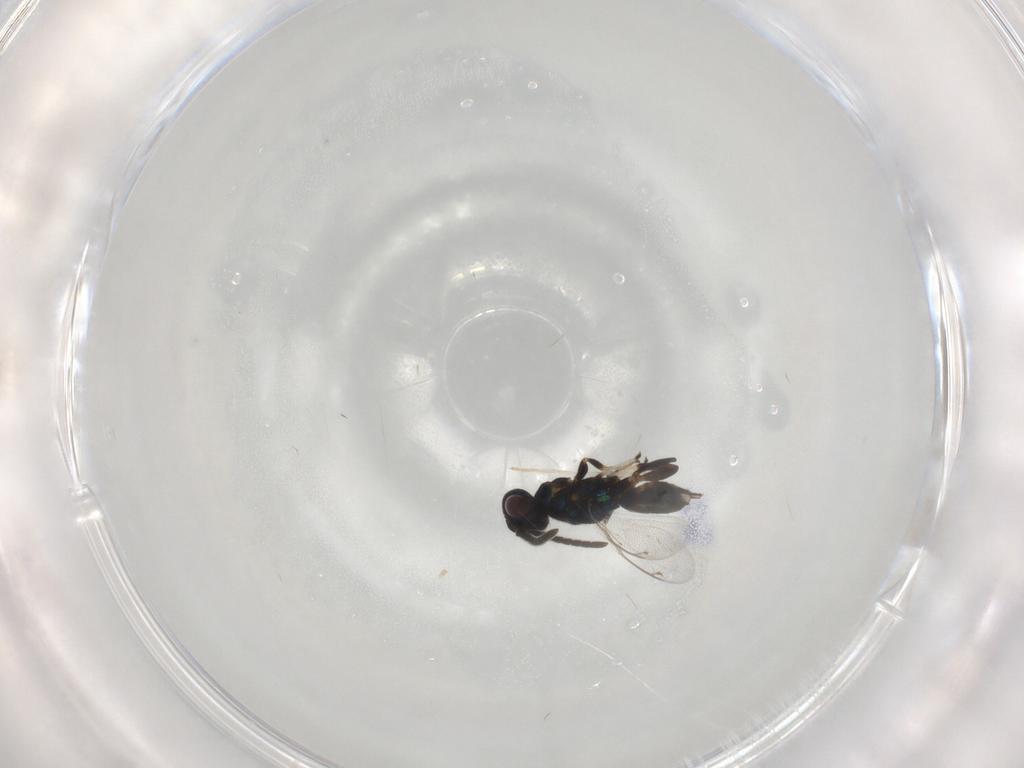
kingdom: Animalia
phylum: Arthropoda
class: Insecta
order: Hymenoptera
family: Eupelmidae
